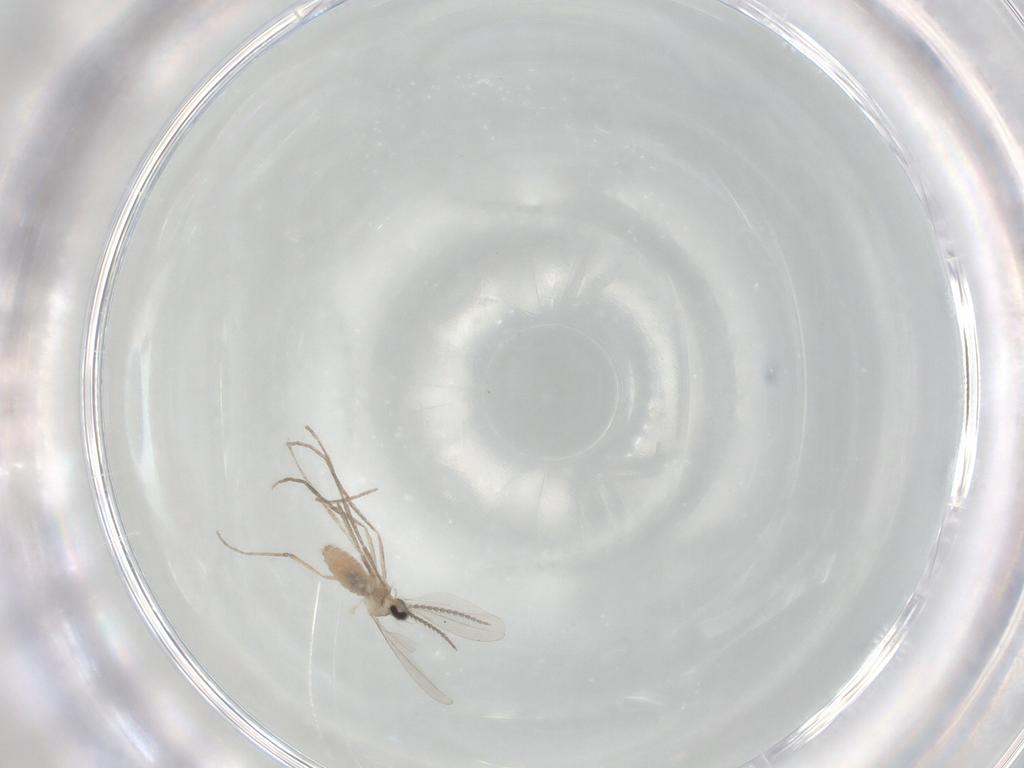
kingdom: Animalia
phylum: Arthropoda
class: Insecta
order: Diptera
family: Cecidomyiidae
